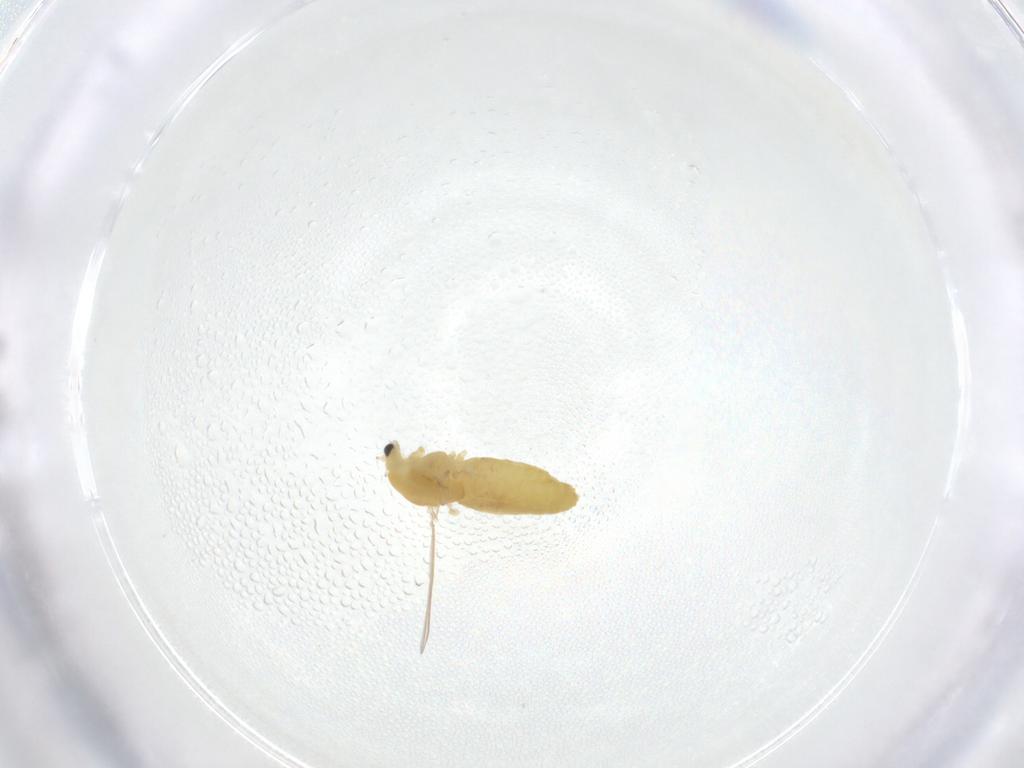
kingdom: Animalia
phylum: Arthropoda
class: Insecta
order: Diptera
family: Chironomidae
